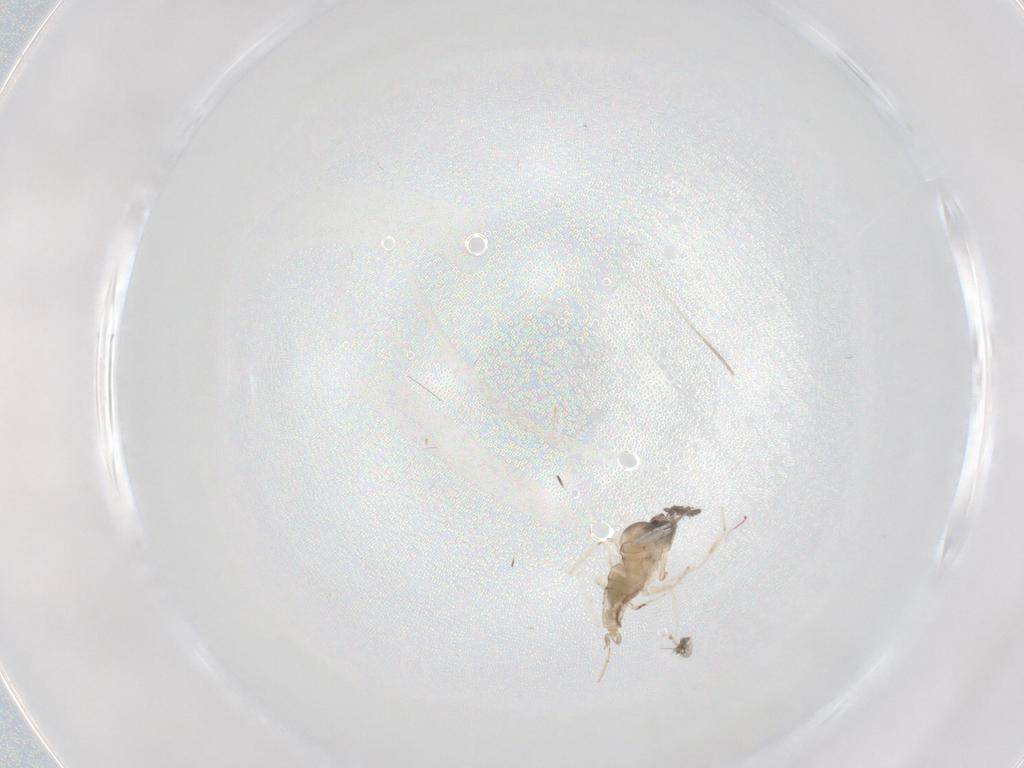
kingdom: Animalia
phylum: Arthropoda
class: Insecta
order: Diptera
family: Cecidomyiidae
